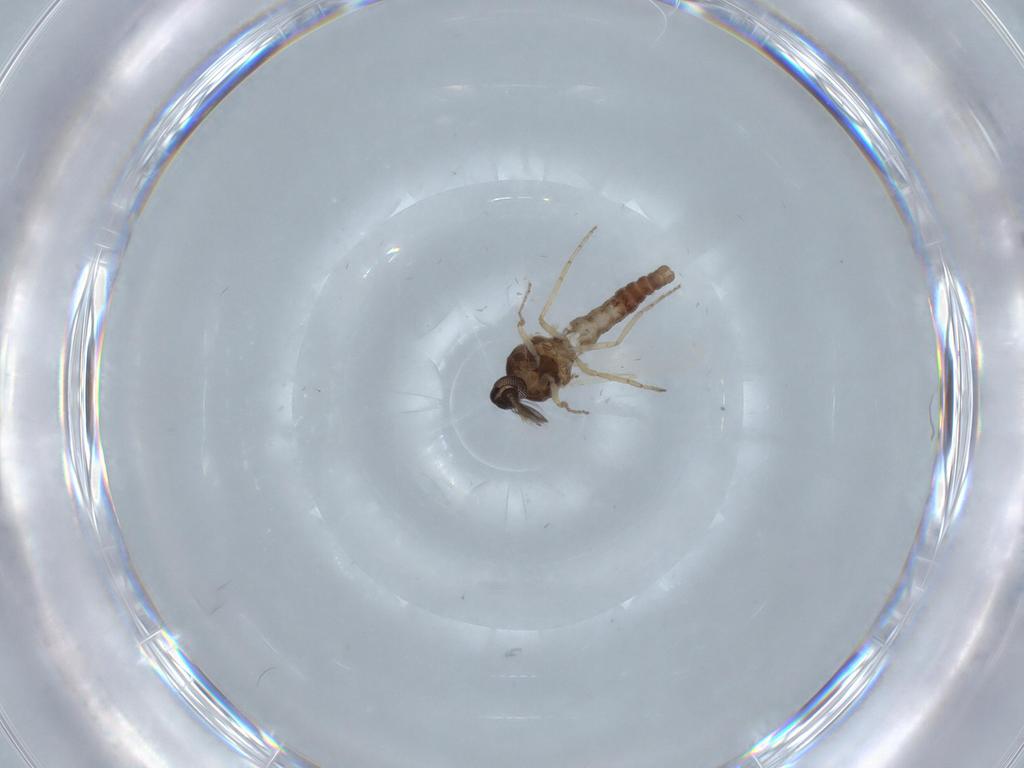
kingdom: Animalia
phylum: Arthropoda
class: Insecta
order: Diptera
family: Ceratopogonidae
